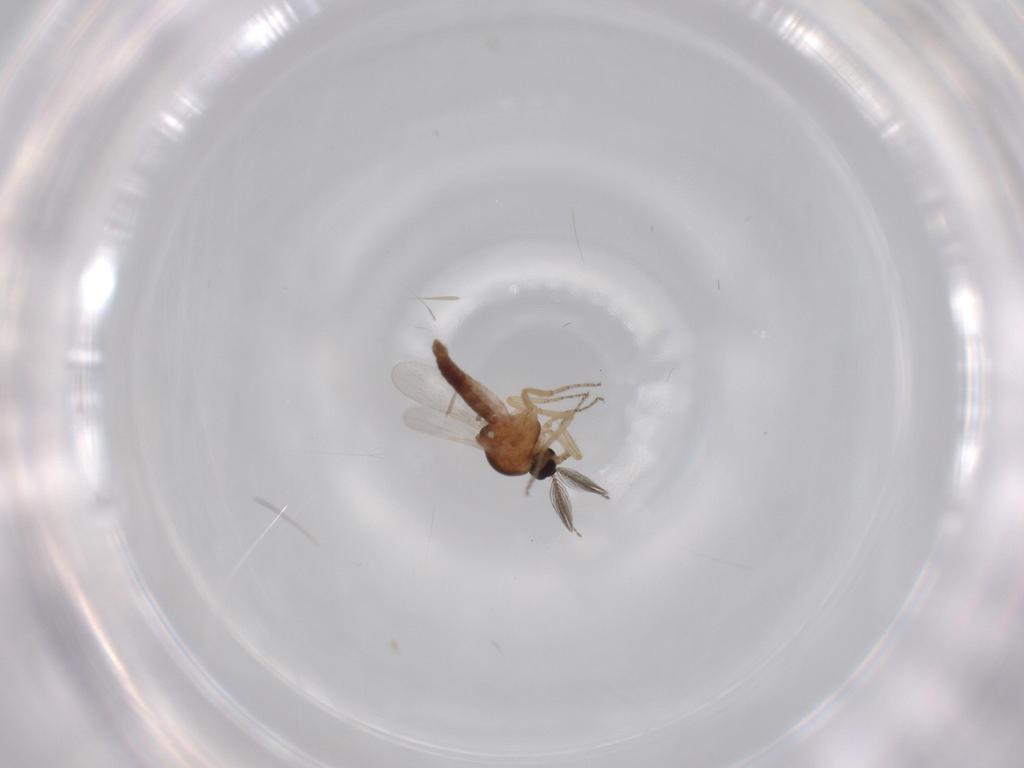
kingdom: Animalia
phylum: Arthropoda
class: Insecta
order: Diptera
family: Ceratopogonidae
